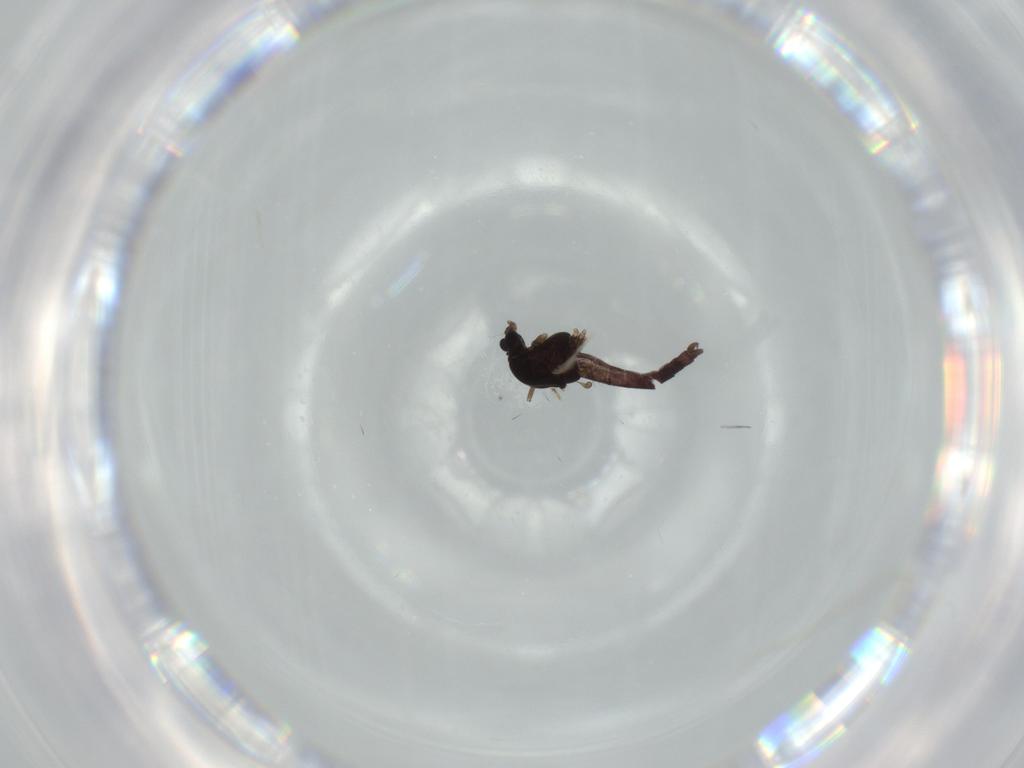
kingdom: Animalia
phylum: Arthropoda
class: Insecta
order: Diptera
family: Chironomidae
